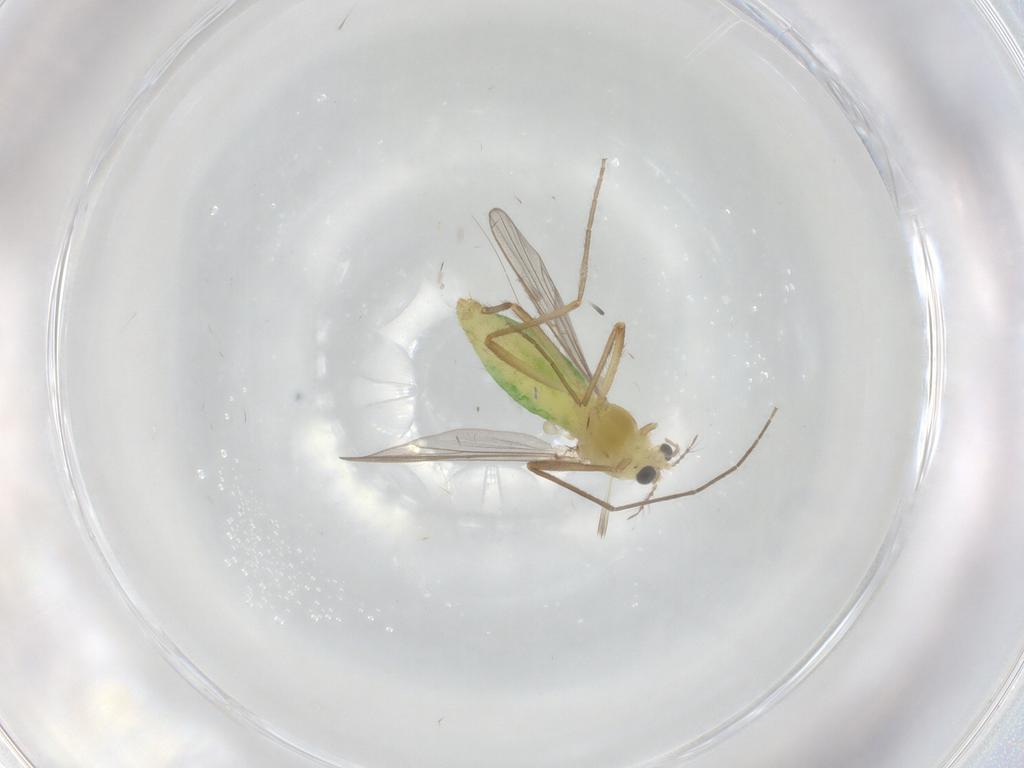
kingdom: Animalia
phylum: Arthropoda
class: Insecta
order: Diptera
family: Chironomidae
